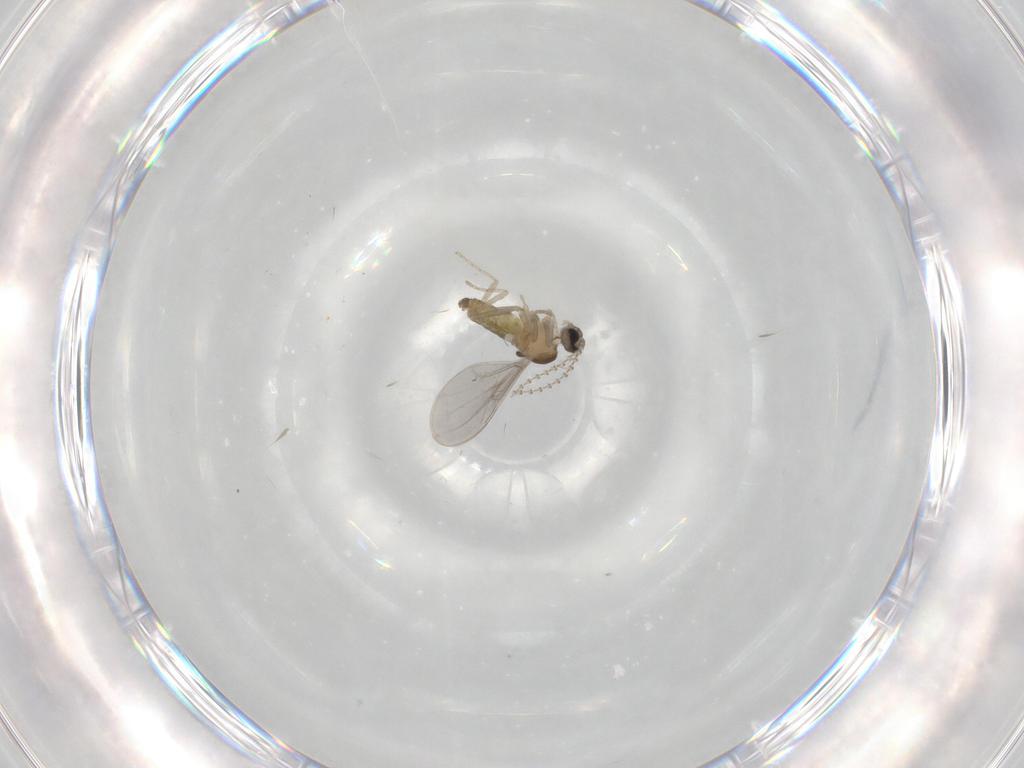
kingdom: Animalia
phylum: Arthropoda
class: Insecta
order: Diptera
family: Cecidomyiidae
